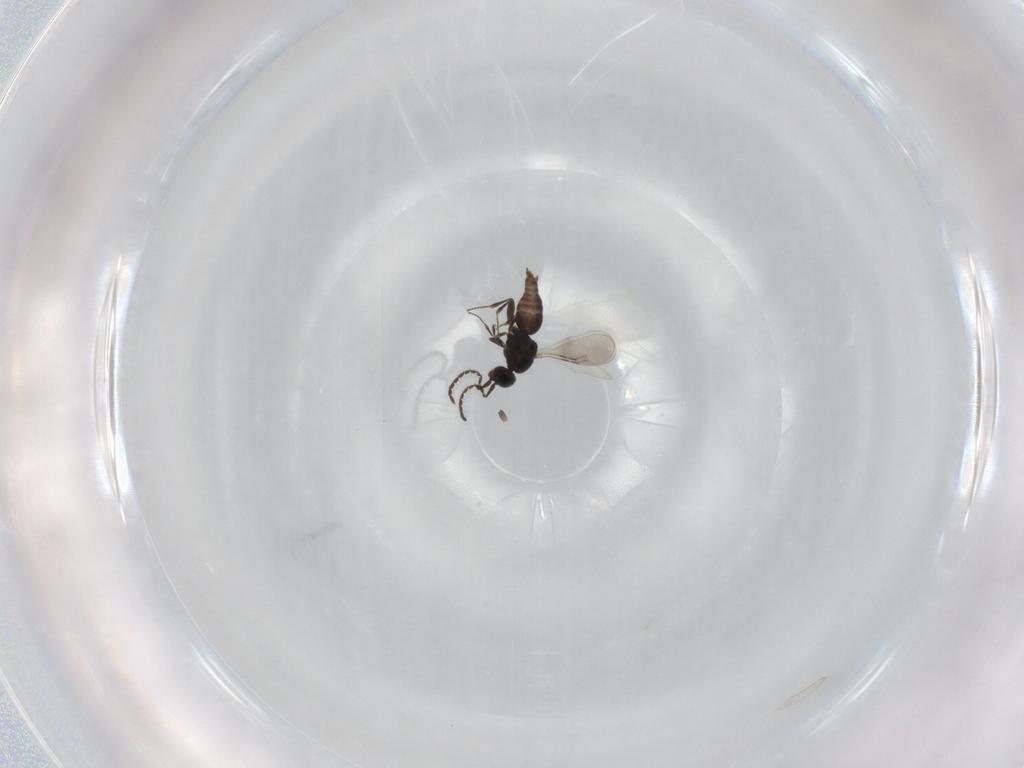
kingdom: Animalia
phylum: Arthropoda
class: Insecta
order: Hymenoptera
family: Ceraphronidae
